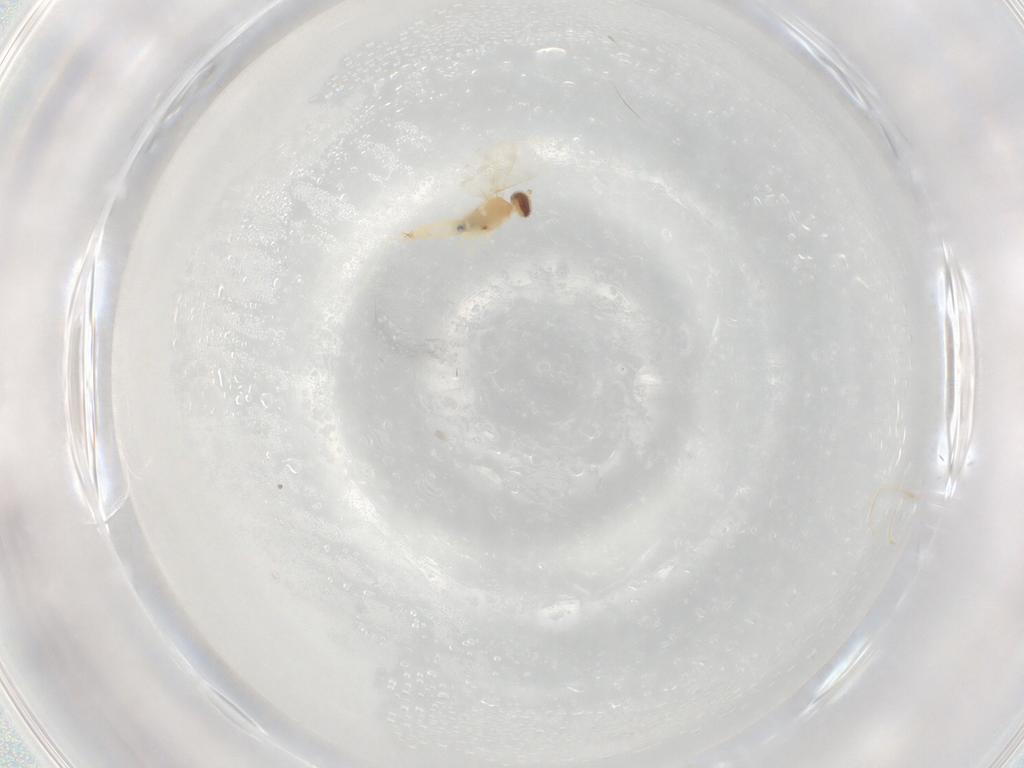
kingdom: Animalia
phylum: Arthropoda
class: Insecta
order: Diptera
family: Cecidomyiidae
